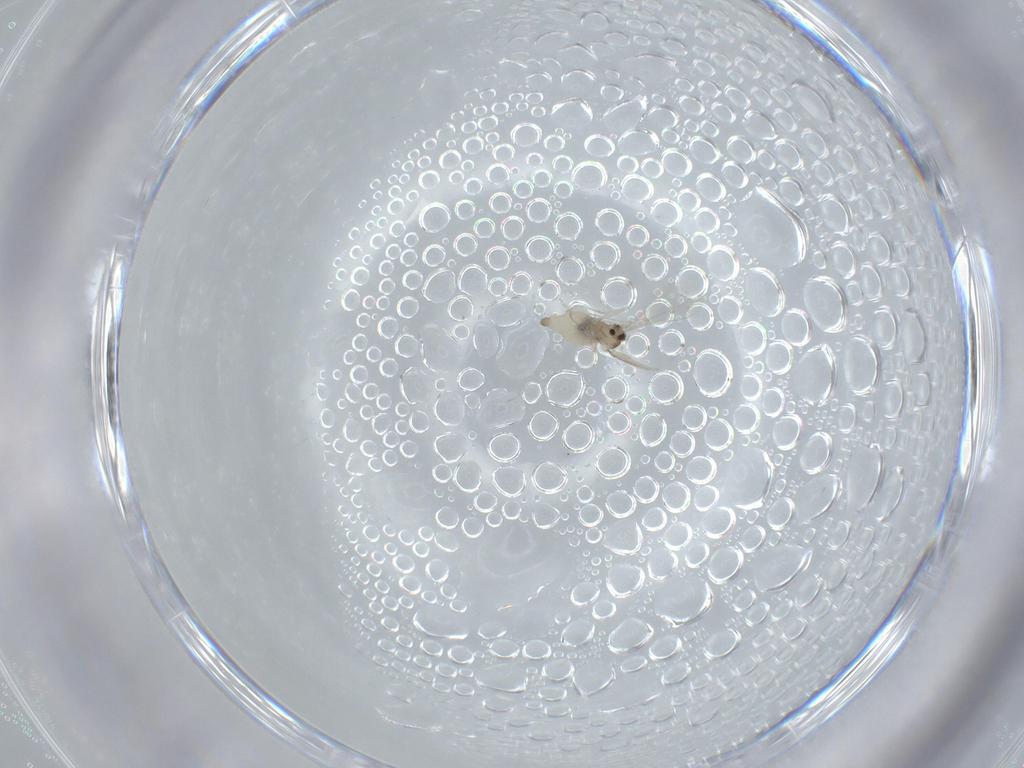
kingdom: Animalia
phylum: Arthropoda
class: Insecta
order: Diptera
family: Cecidomyiidae
